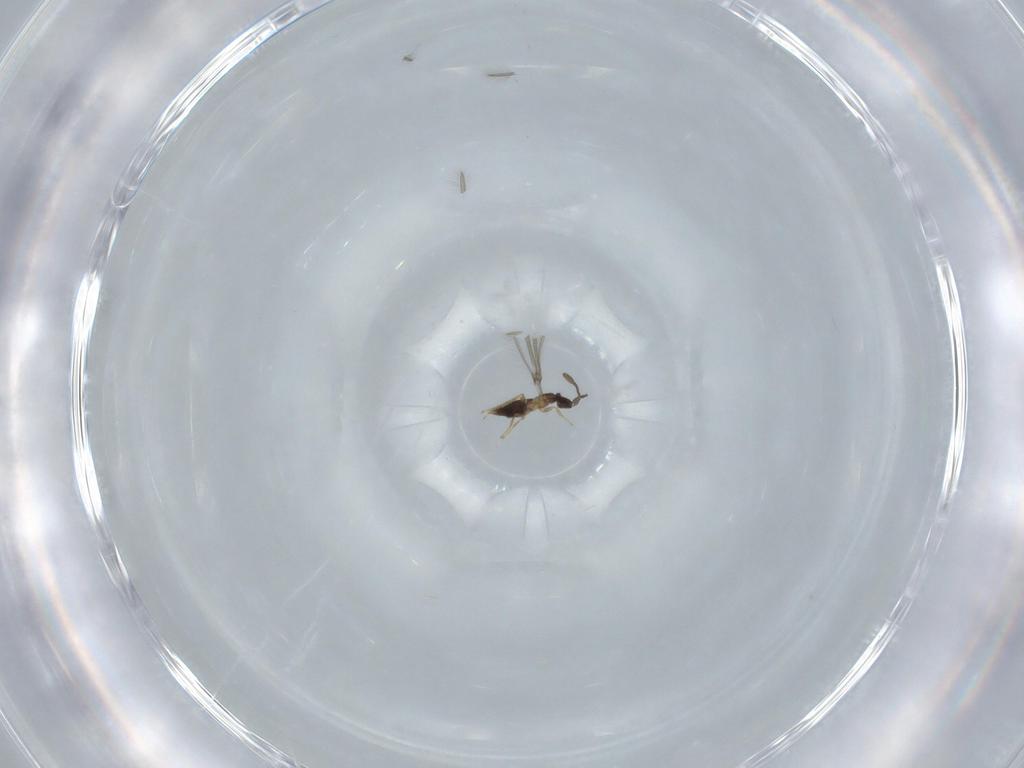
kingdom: Animalia
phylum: Arthropoda
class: Insecta
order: Hymenoptera
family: Mymaridae
